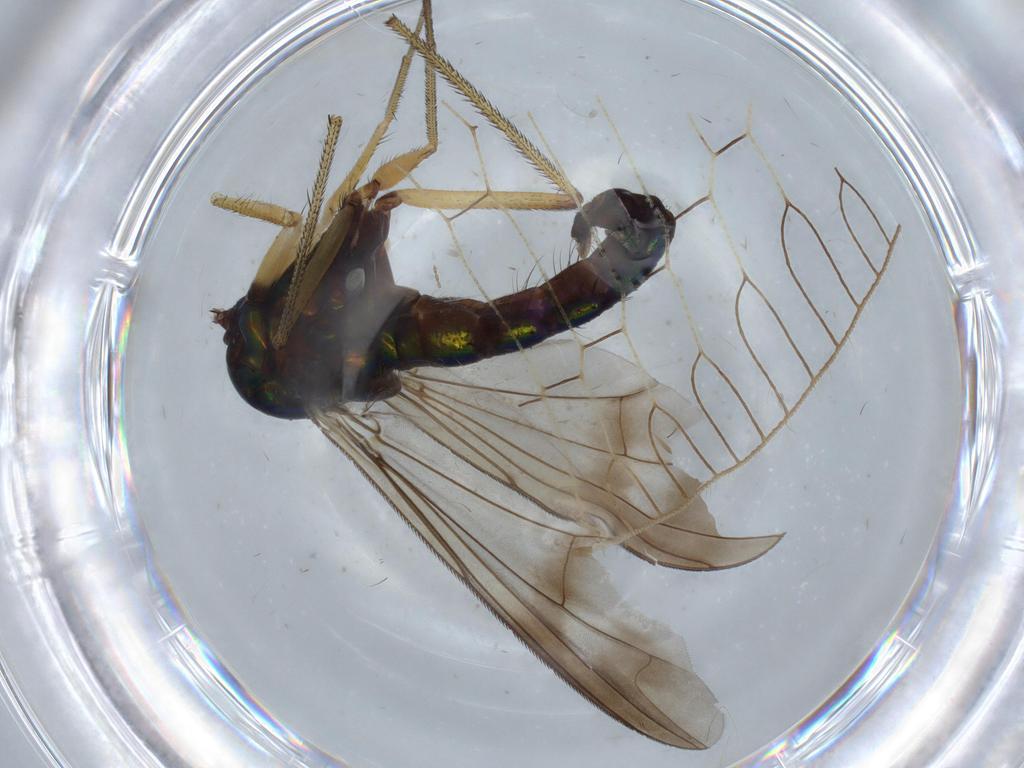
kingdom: Animalia
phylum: Arthropoda
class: Insecta
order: Diptera
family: Dolichopodidae
